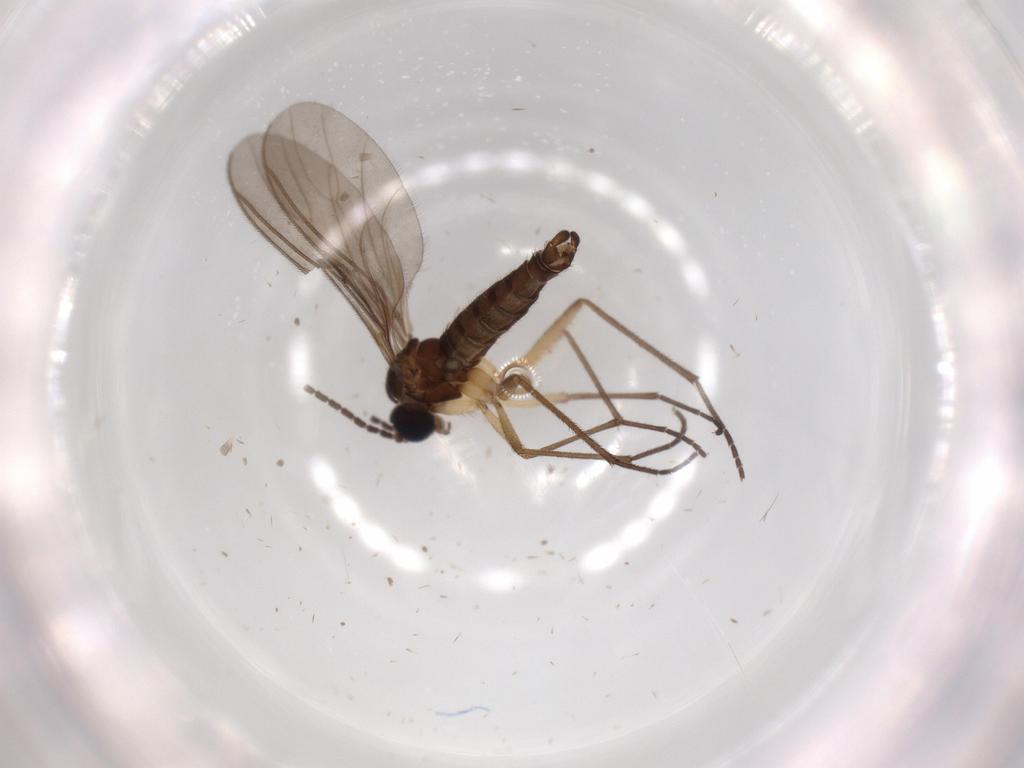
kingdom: Animalia
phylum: Arthropoda
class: Insecta
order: Diptera
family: Sciaridae
